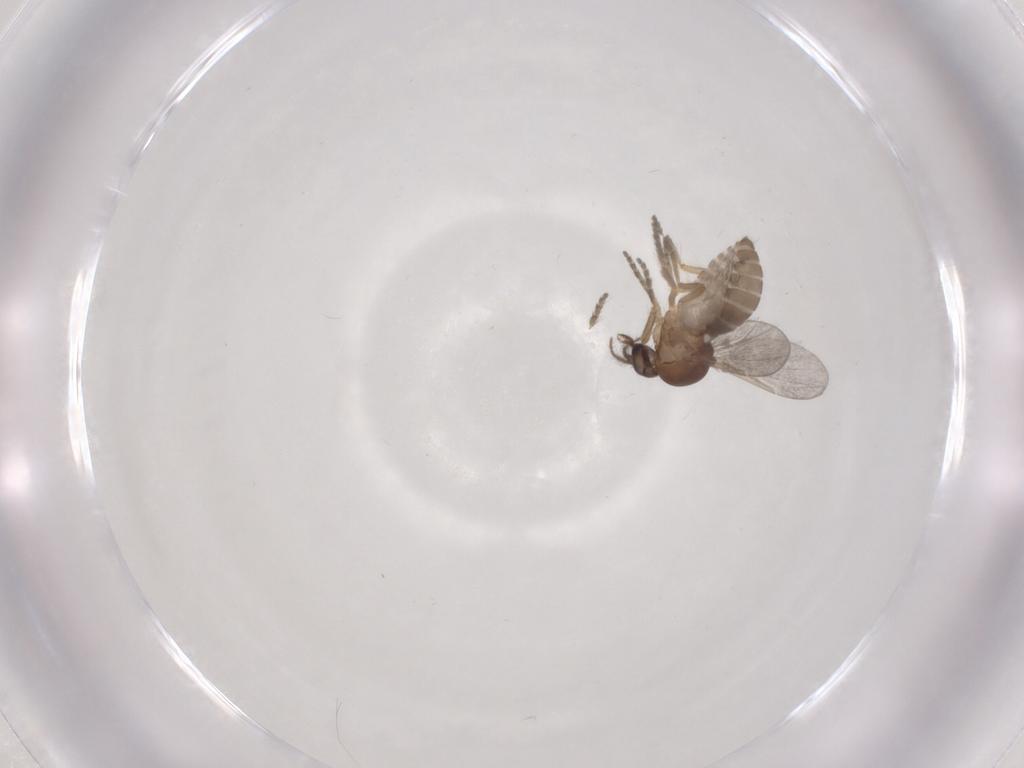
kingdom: Animalia
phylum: Arthropoda
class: Insecta
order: Diptera
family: Ceratopogonidae
